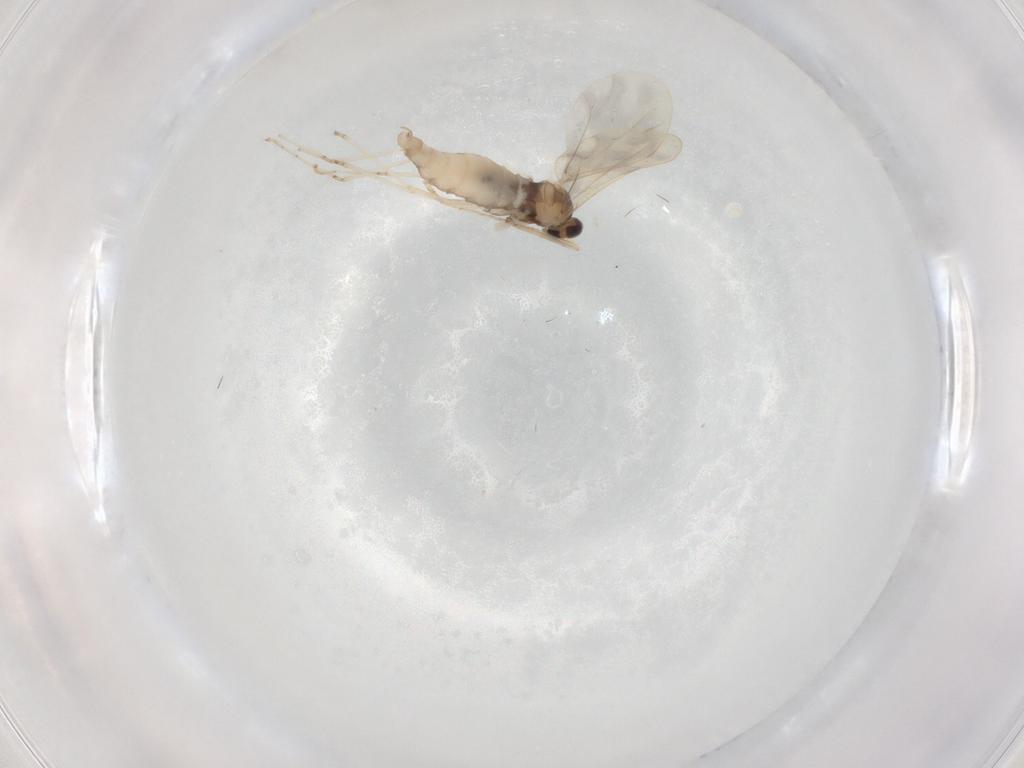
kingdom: Animalia
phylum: Arthropoda
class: Insecta
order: Diptera
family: Chironomidae
